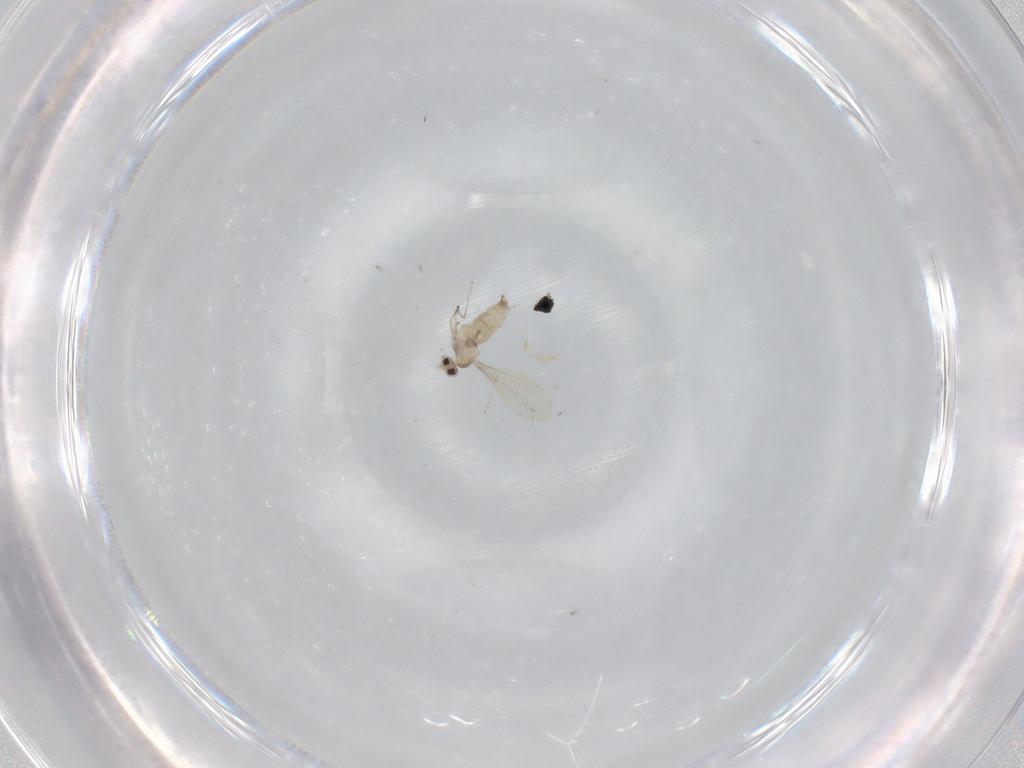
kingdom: Animalia
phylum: Arthropoda
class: Insecta
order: Diptera
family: Cecidomyiidae
